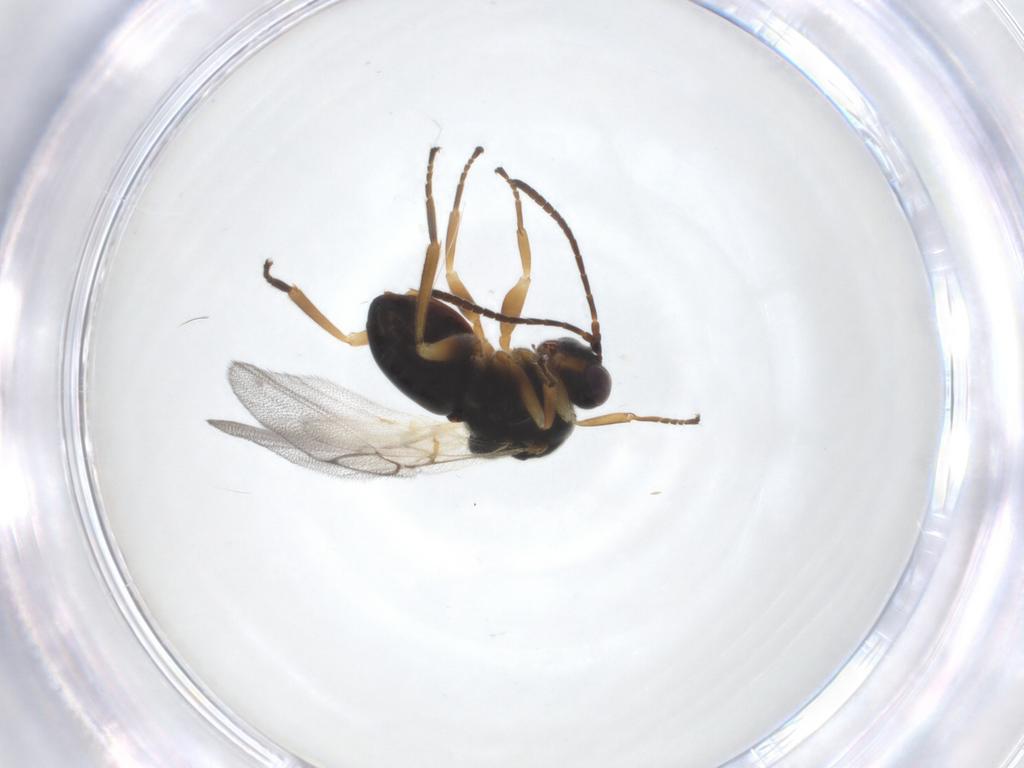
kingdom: Animalia
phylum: Arthropoda
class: Insecta
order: Hymenoptera
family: Cynipidae
